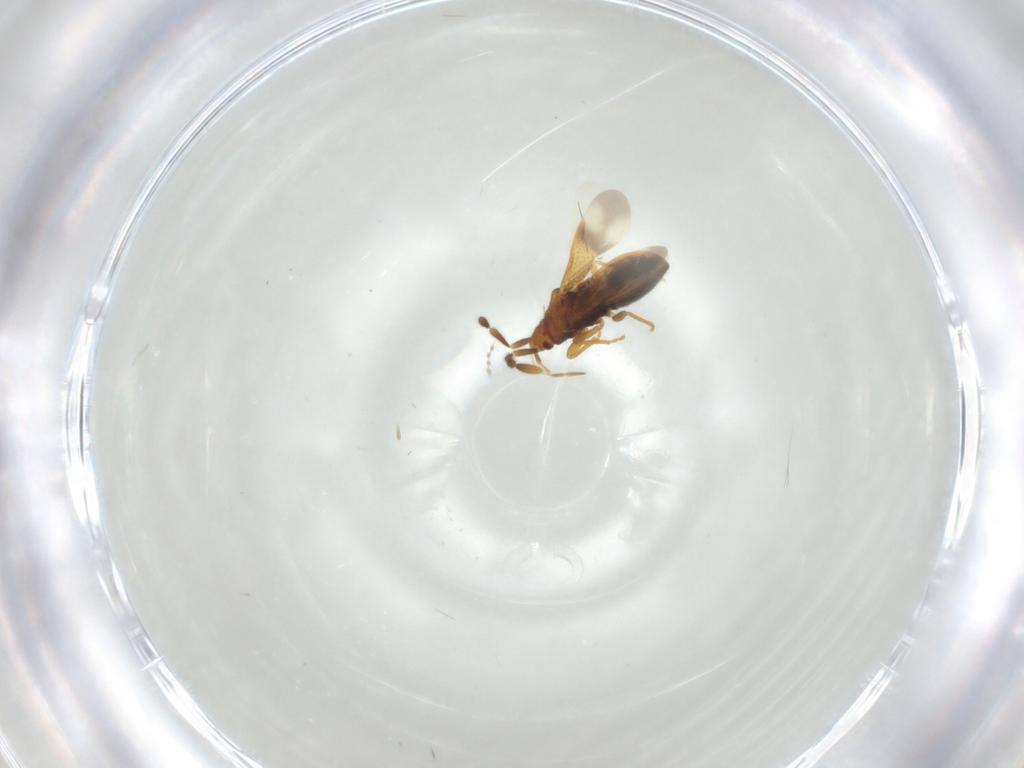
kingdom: Animalia
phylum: Arthropoda
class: Insecta
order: Hemiptera
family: Rhyparochromidae
